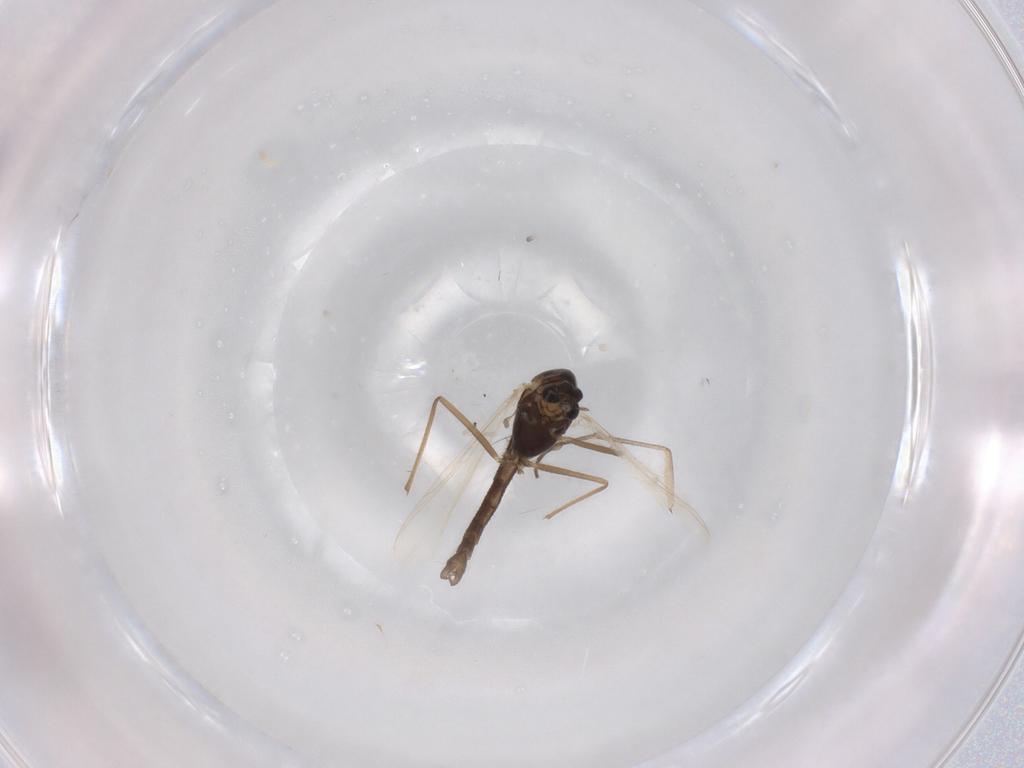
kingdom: Animalia
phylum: Arthropoda
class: Insecta
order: Diptera
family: Chironomidae
